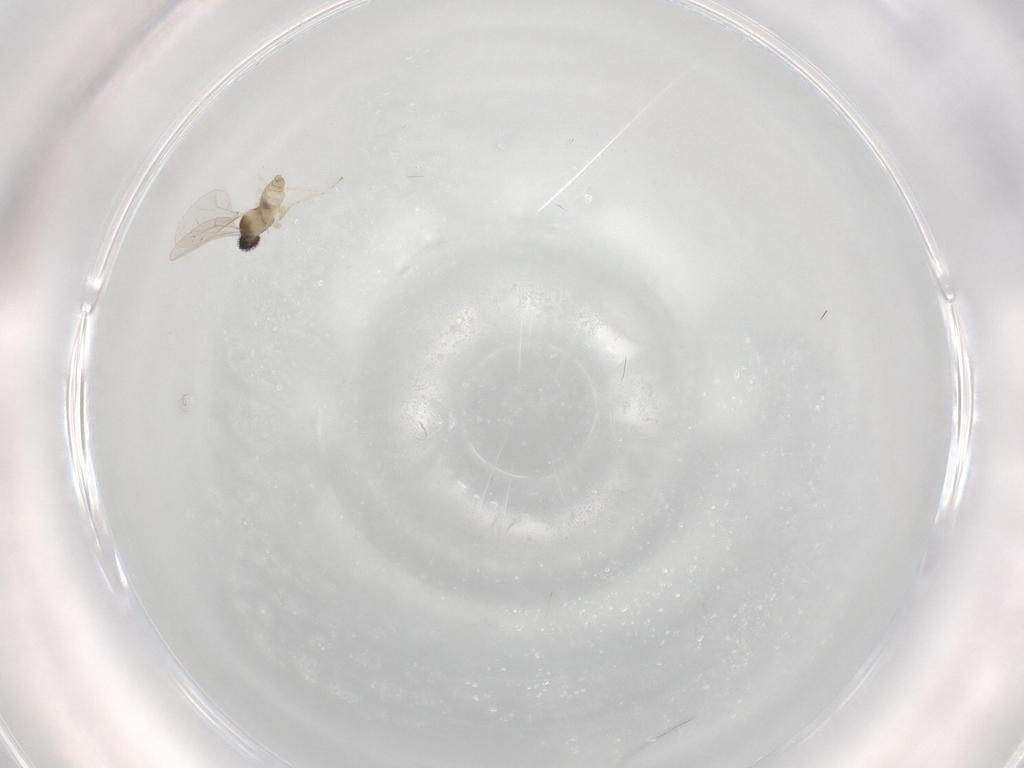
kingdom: Animalia
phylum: Arthropoda
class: Insecta
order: Diptera
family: Cecidomyiidae
